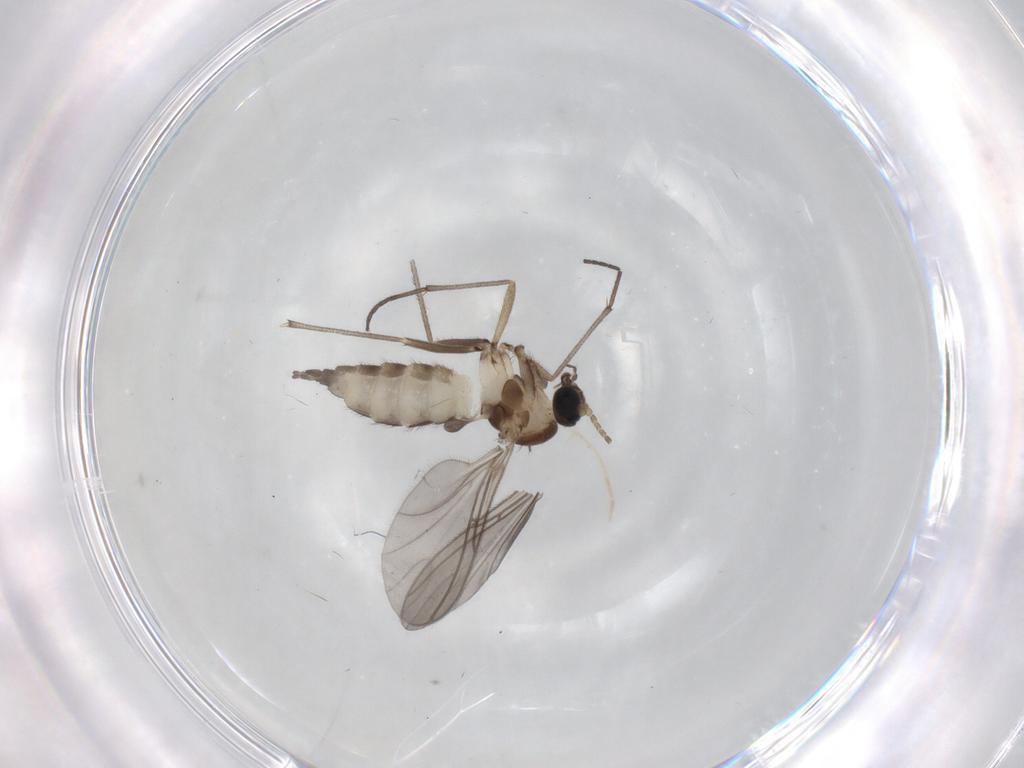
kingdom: Animalia
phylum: Arthropoda
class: Insecta
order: Diptera
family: Sciaridae
